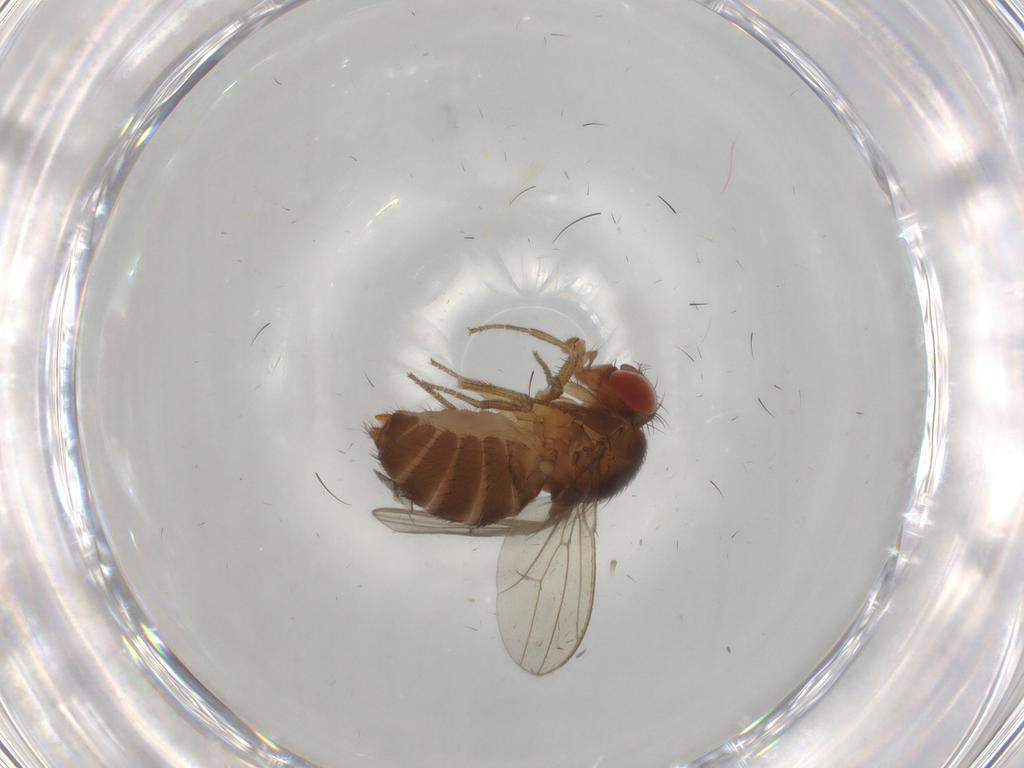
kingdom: Animalia
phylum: Arthropoda
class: Insecta
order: Diptera
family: Drosophilidae
